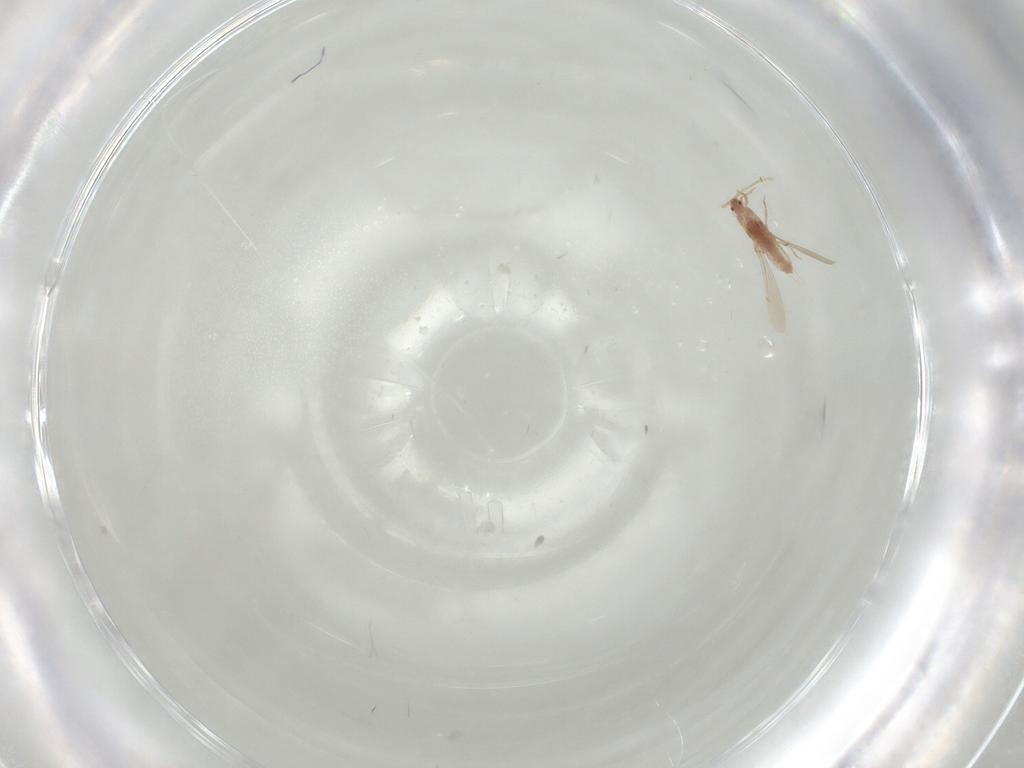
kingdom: Animalia
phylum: Arthropoda
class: Insecta
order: Hemiptera
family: Pseudococcidae
